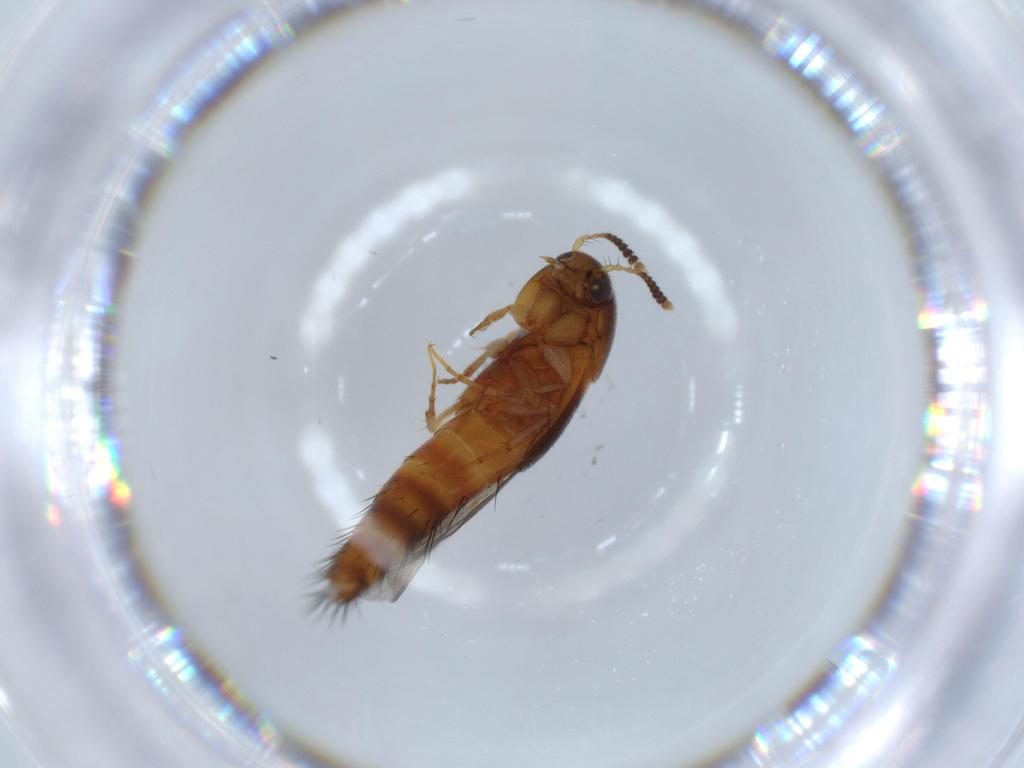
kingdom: Animalia
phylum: Arthropoda
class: Insecta
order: Coleoptera
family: Staphylinidae
